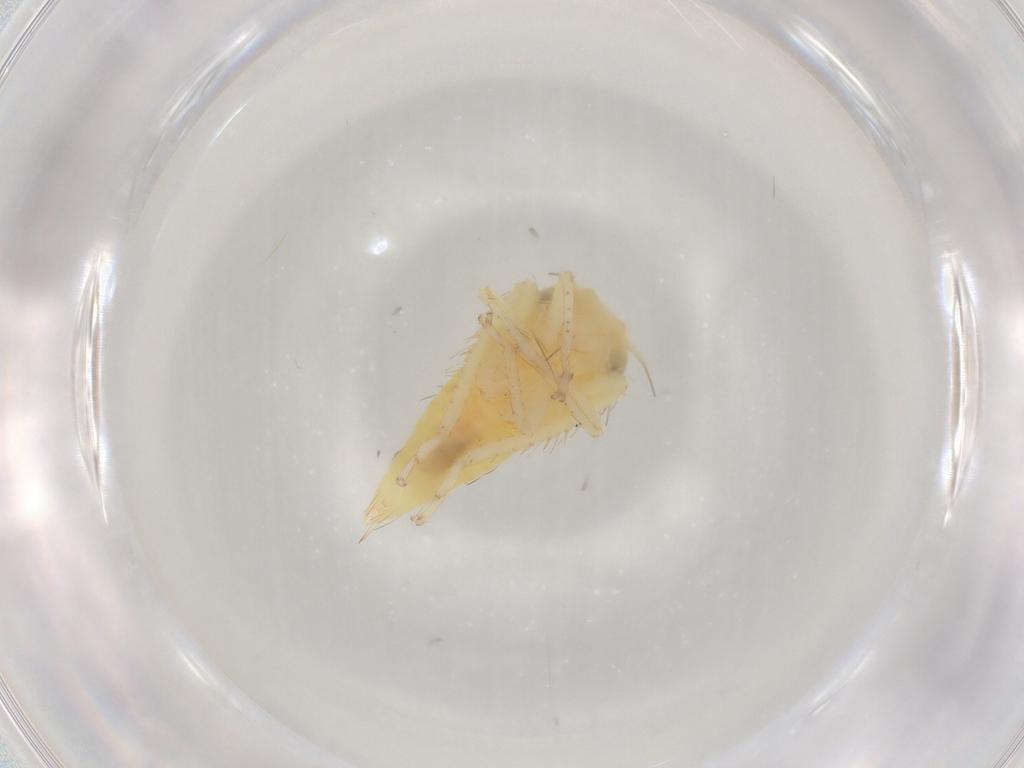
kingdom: Animalia
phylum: Arthropoda
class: Insecta
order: Hemiptera
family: Cicadellidae
